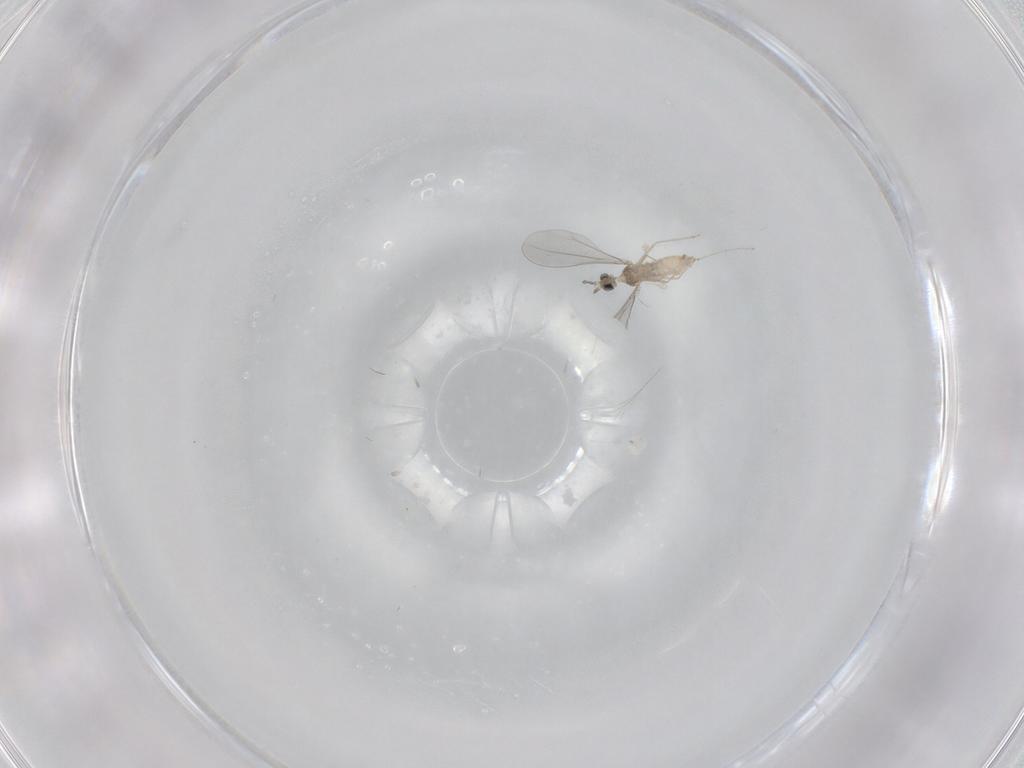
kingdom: Animalia
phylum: Arthropoda
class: Insecta
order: Diptera
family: Cecidomyiidae
